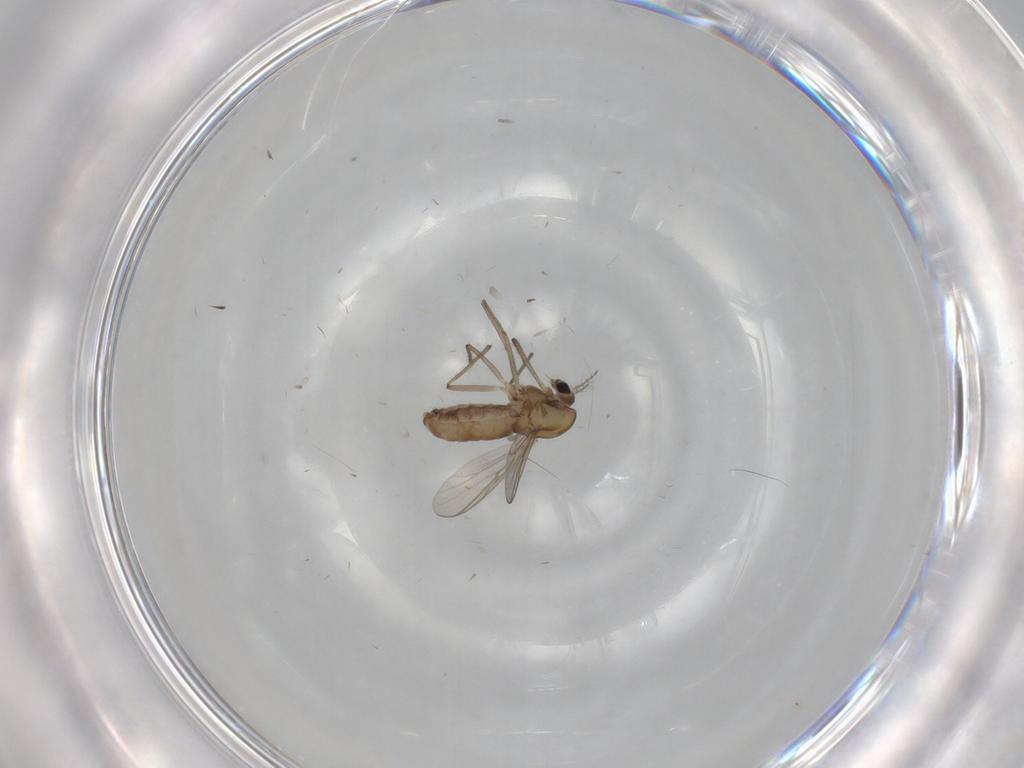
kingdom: Animalia
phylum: Arthropoda
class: Insecta
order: Diptera
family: Chironomidae
